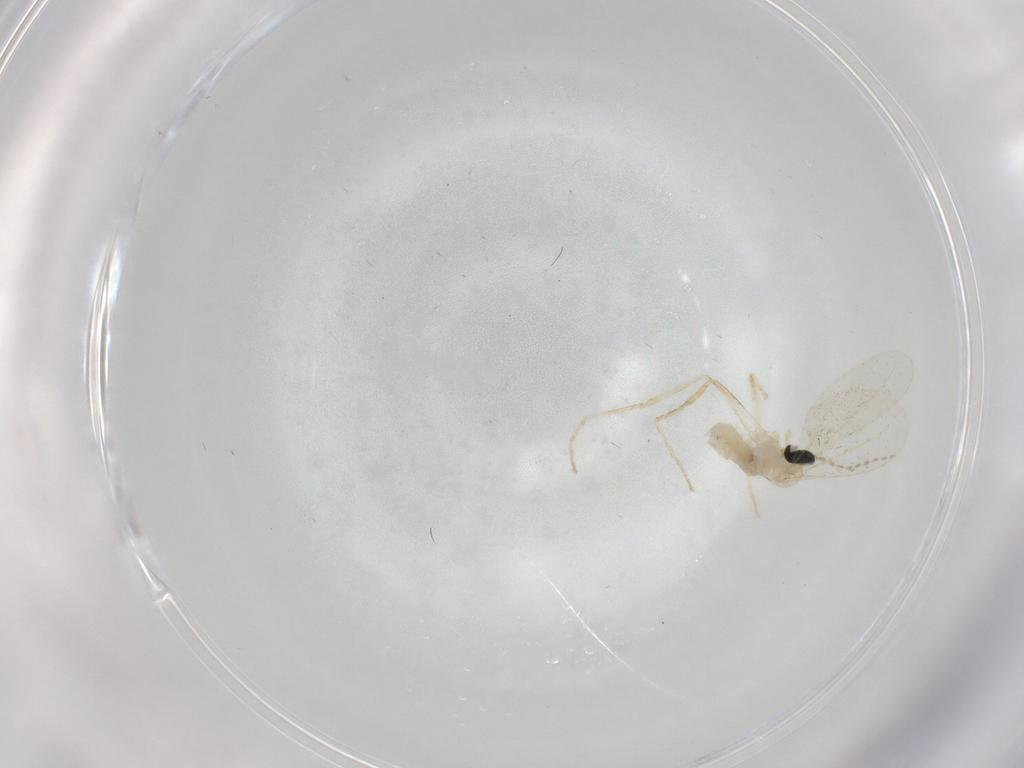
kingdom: Animalia
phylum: Arthropoda
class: Insecta
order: Diptera
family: Cecidomyiidae
